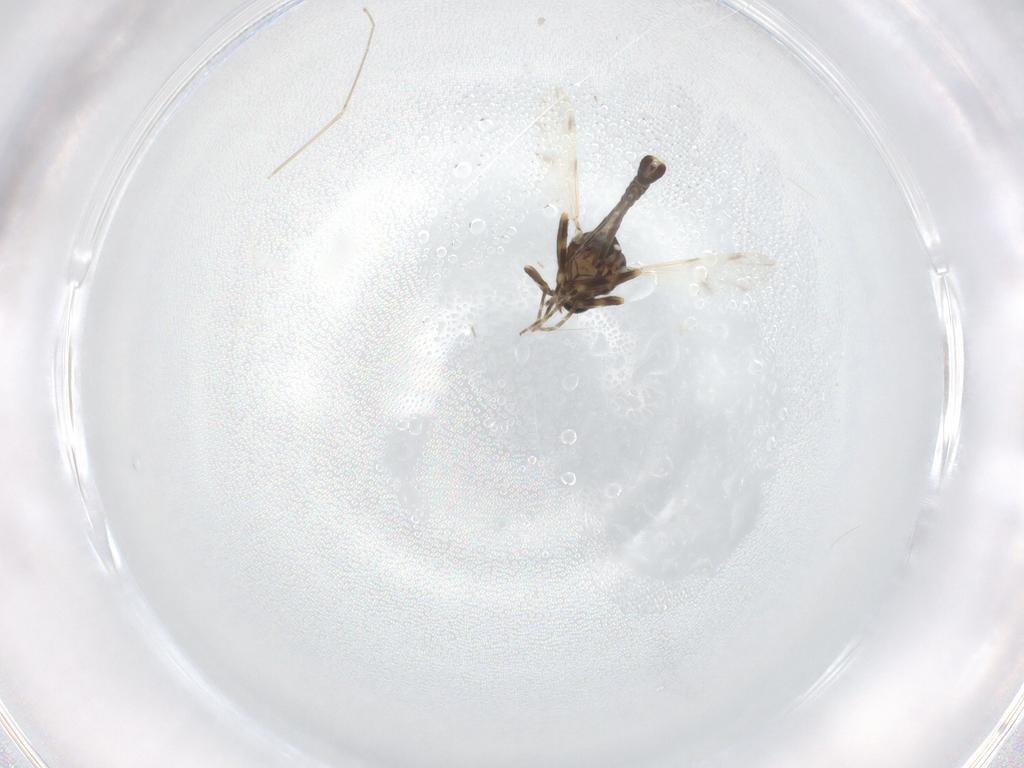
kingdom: Animalia
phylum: Arthropoda
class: Insecta
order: Diptera
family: Ceratopogonidae
